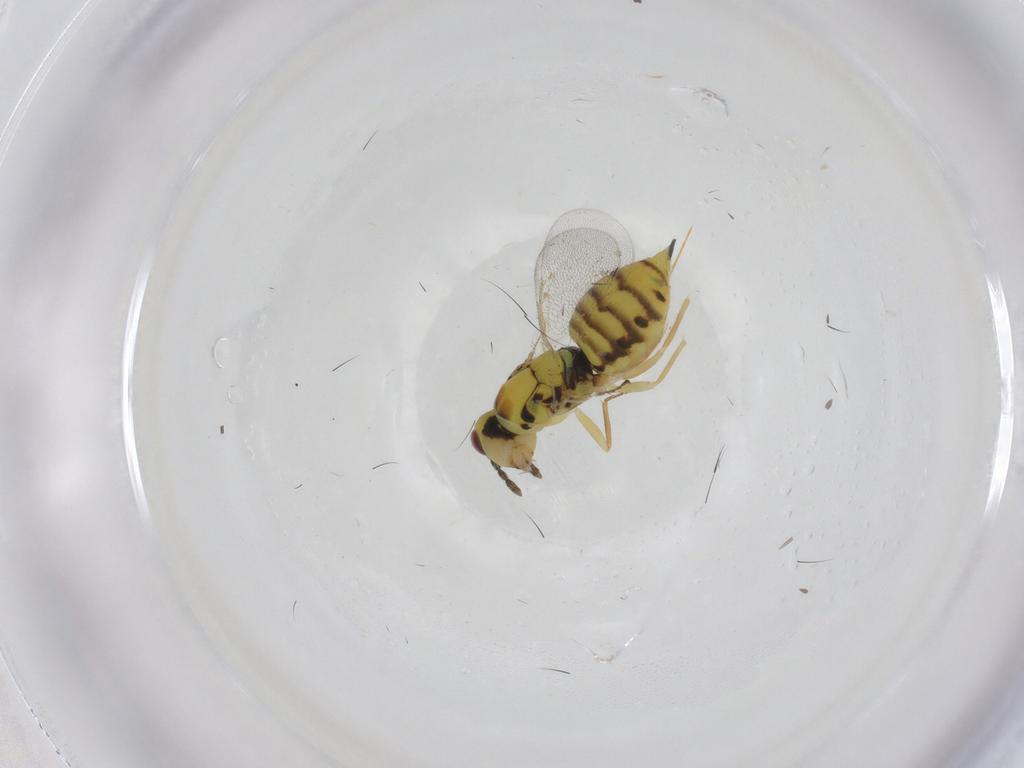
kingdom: Animalia
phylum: Arthropoda
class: Insecta
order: Hymenoptera
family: Eulophidae
